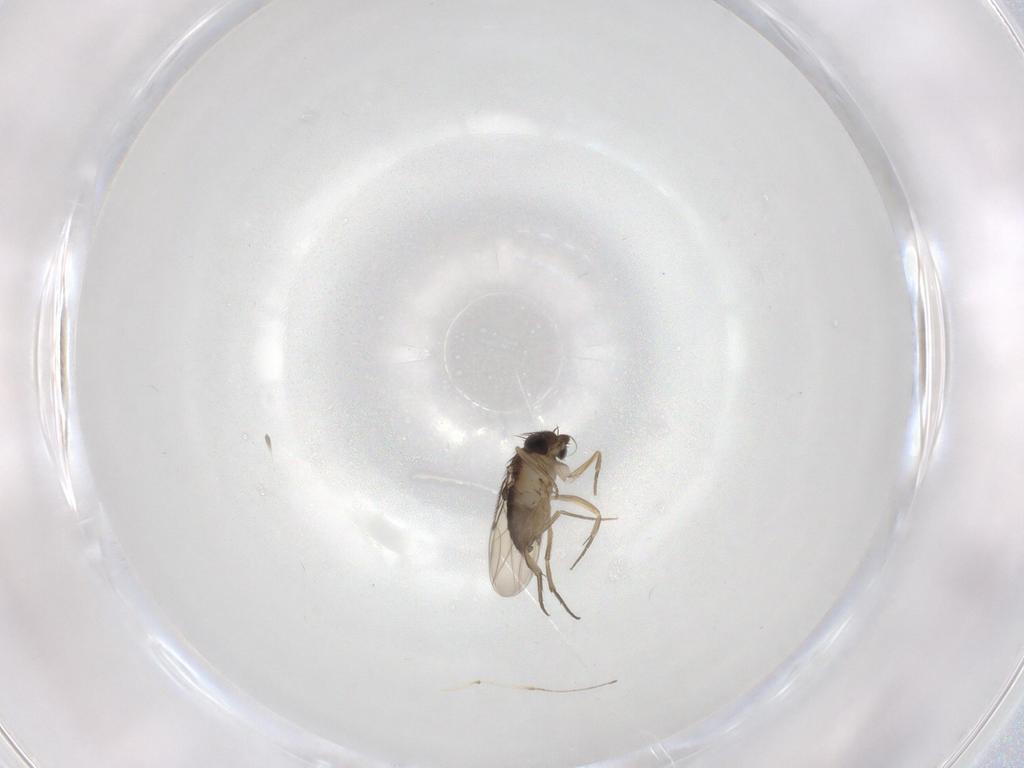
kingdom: Animalia
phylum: Arthropoda
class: Insecta
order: Diptera
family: Phoridae
